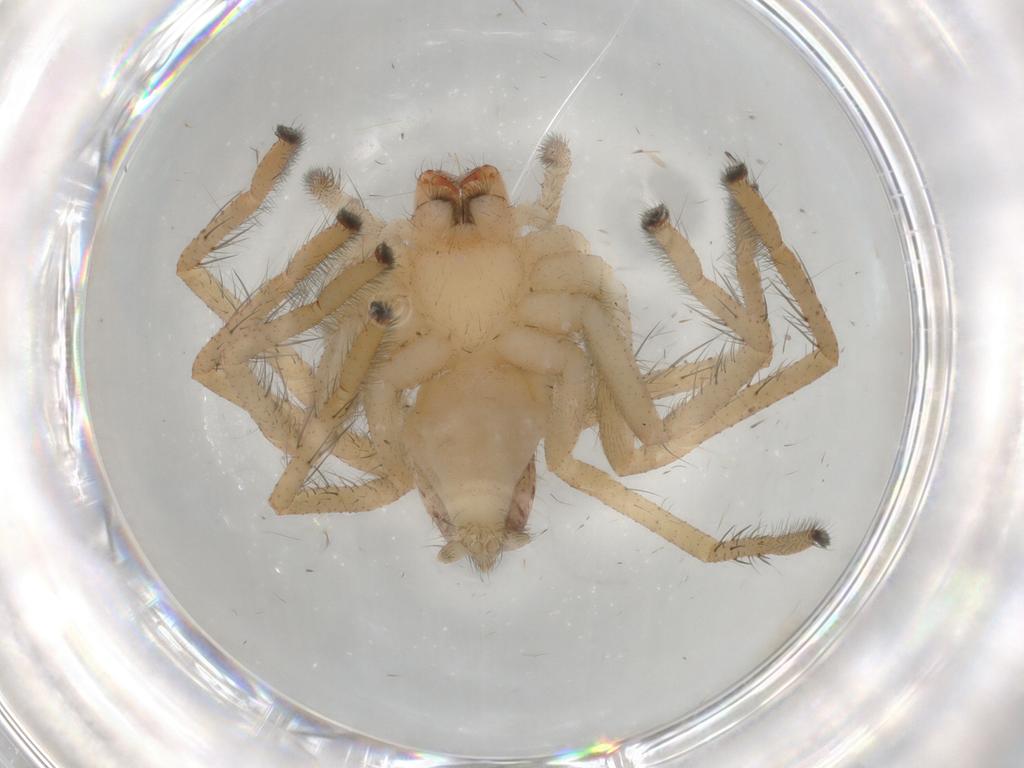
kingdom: Animalia
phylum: Arthropoda
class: Arachnida
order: Araneae
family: Sparassidae
